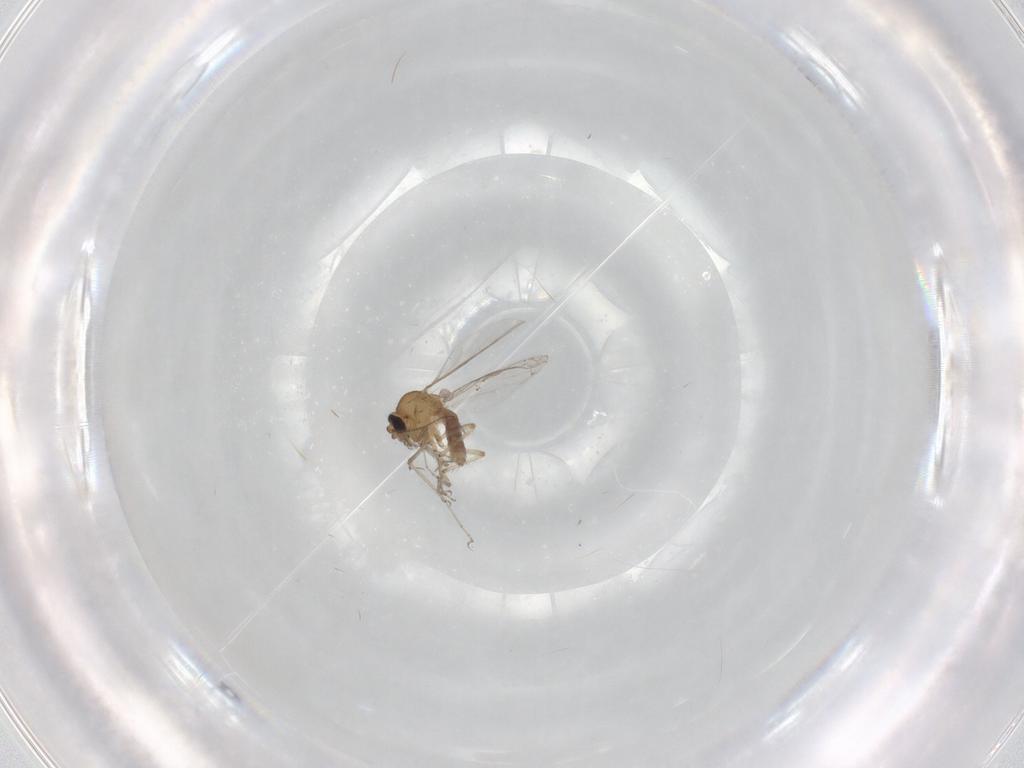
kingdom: Animalia
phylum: Arthropoda
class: Insecta
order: Diptera
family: Ceratopogonidae
